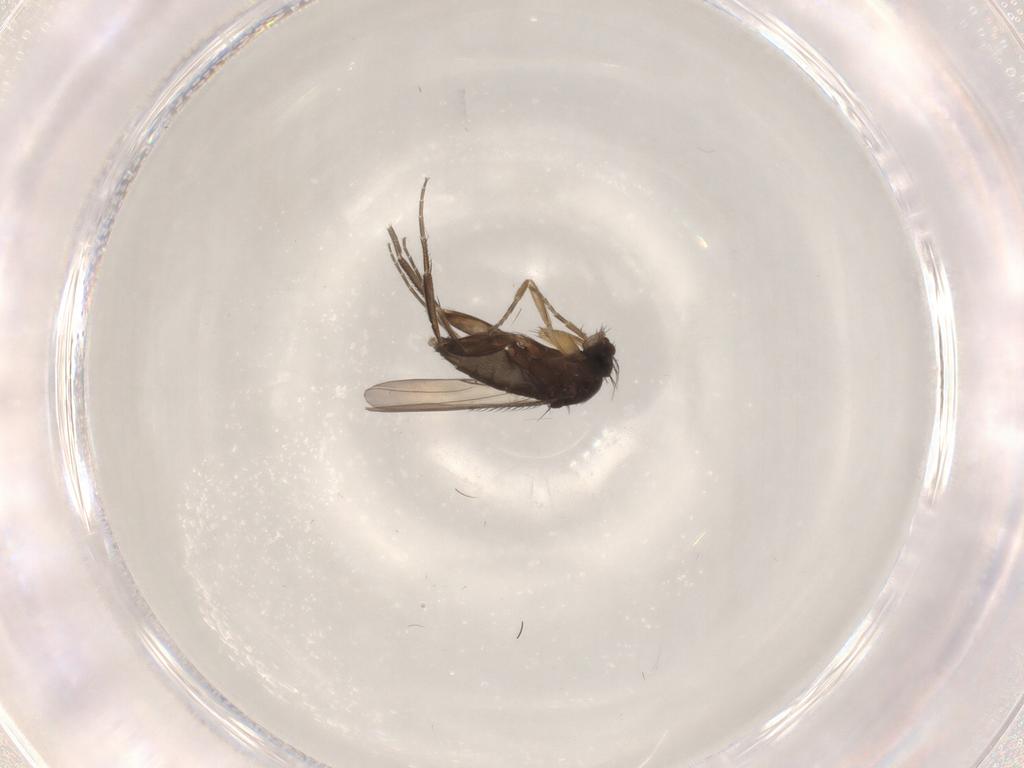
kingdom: Animalia
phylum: Arthropoda
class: Insecta
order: Diptera
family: Phoridae
